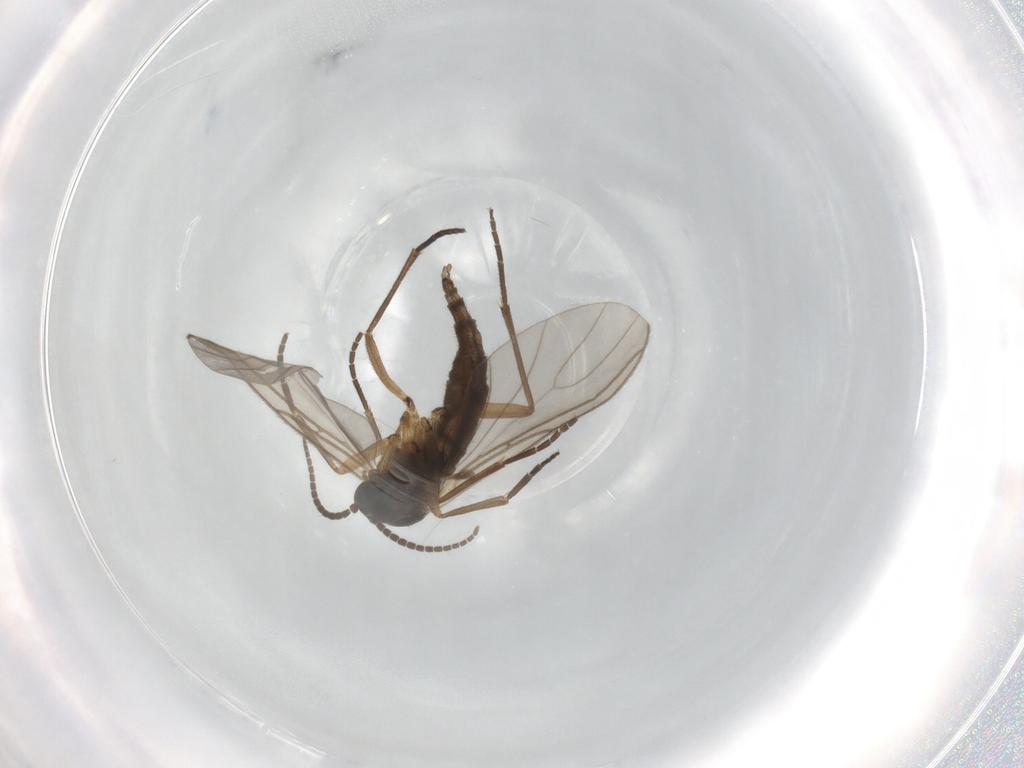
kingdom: Animalia
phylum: Arthropoda
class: Insecta
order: Diptera
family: Sciaridae
